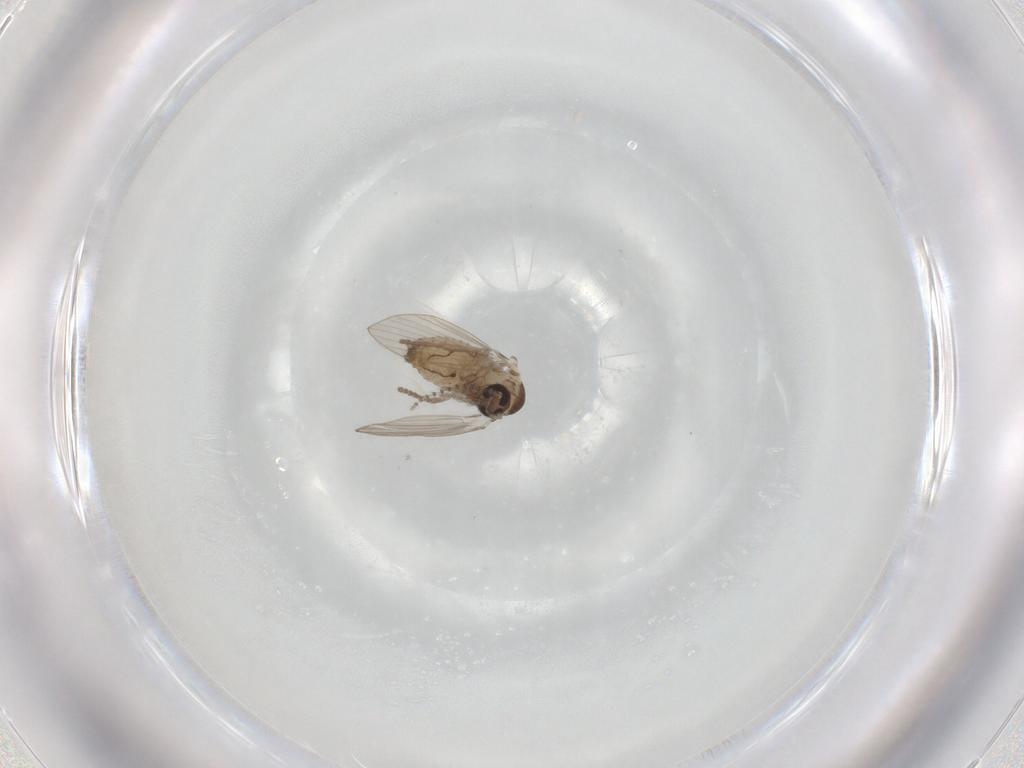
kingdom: Animalia
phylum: Arthropoda
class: Insecta
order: Diptera
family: Psychodidae
